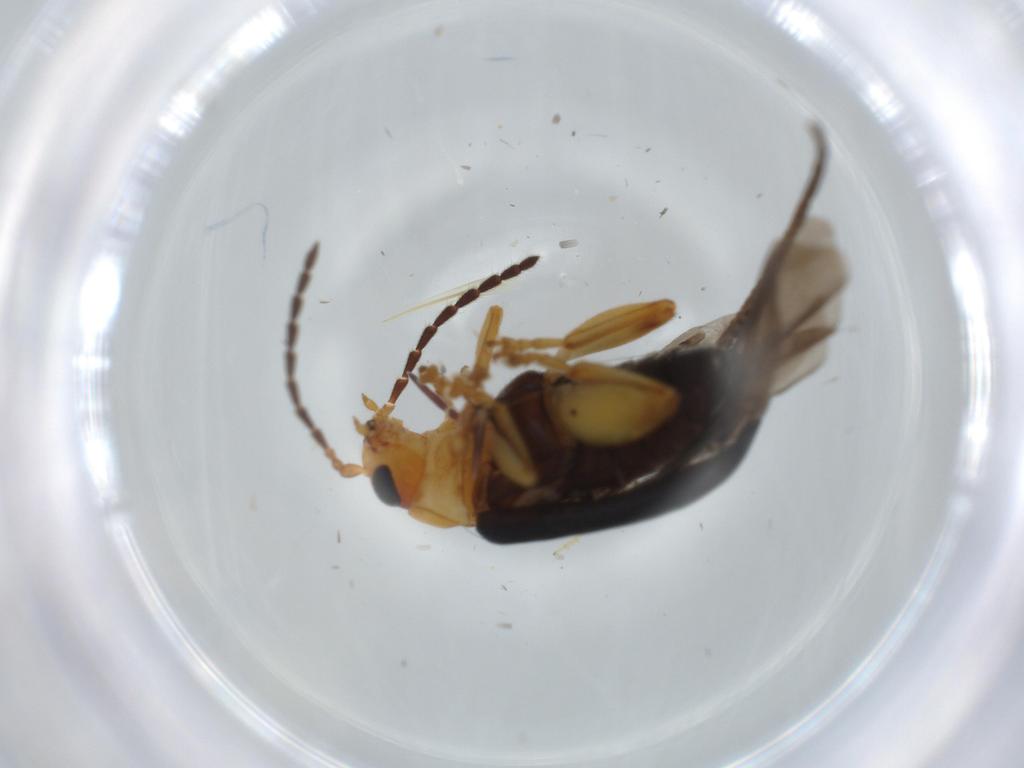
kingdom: Animalia
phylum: Arthropoda
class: Insecta
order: Coleoptera
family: Chrysomelidae
